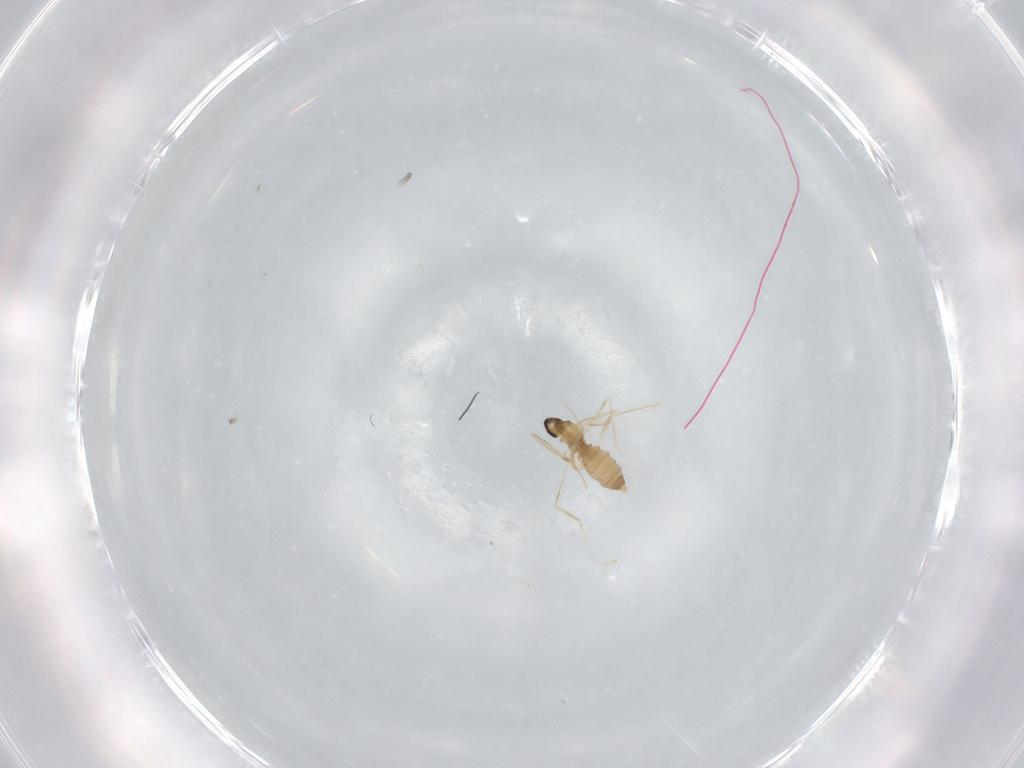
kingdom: Animalia
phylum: Arthropoda
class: Insecta
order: Diptera
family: Cecidomyiidae
